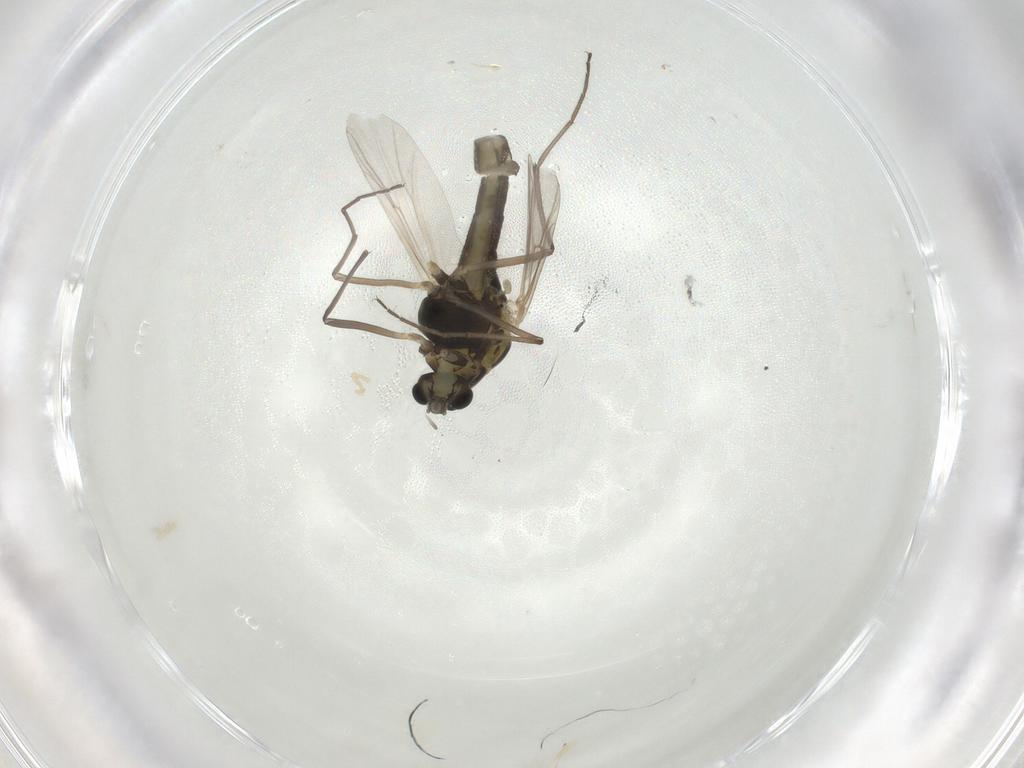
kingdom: Animalia
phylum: Arthropoda
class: Insecta
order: Diptera
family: Chironomidae
